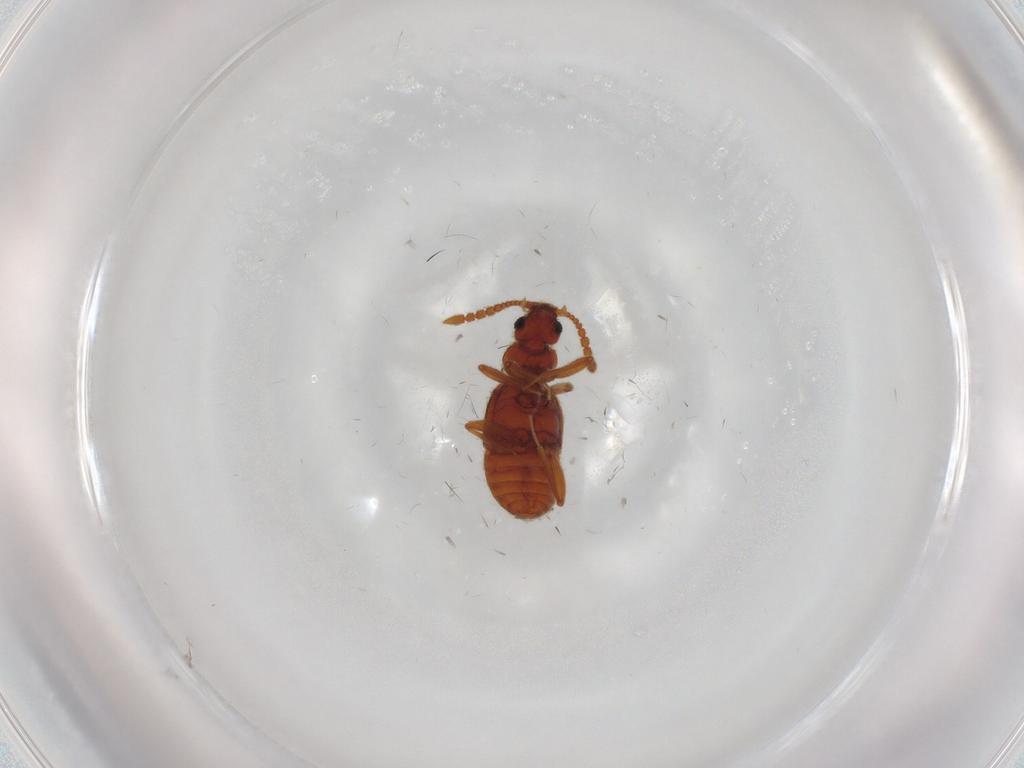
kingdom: Animalia
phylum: Arthropoda
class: Insecta
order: Coleoptera
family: Staphylinidae
